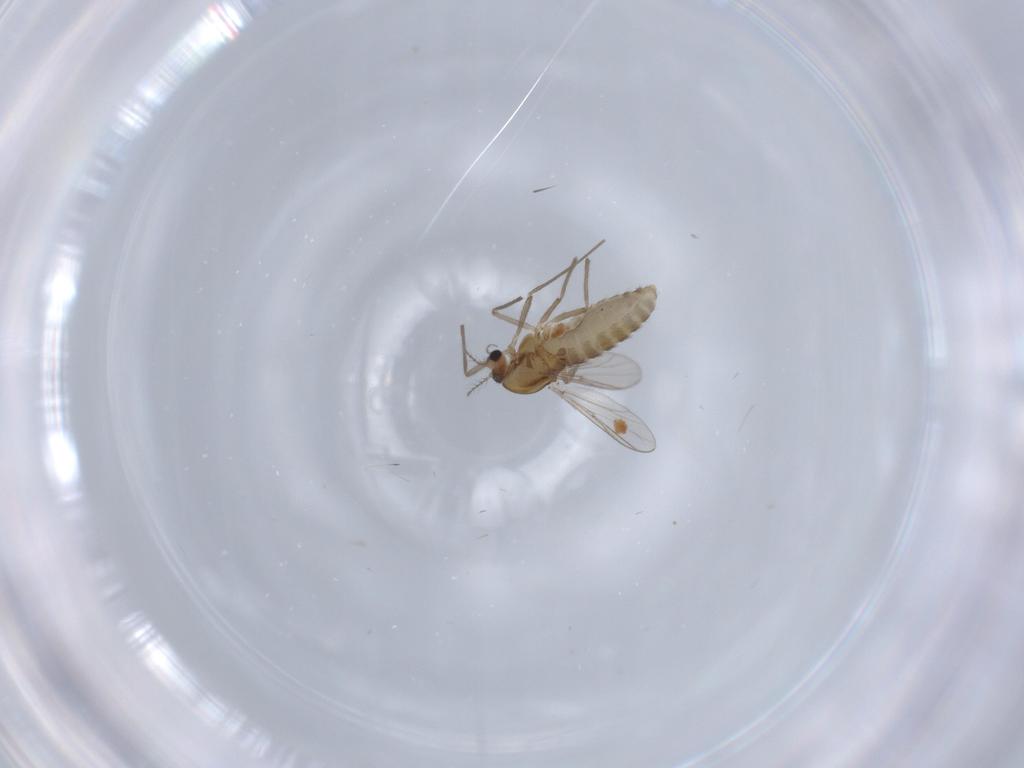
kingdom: Animalia
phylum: Arthropoda
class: Insecta
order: Diptera
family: Chironomidae
